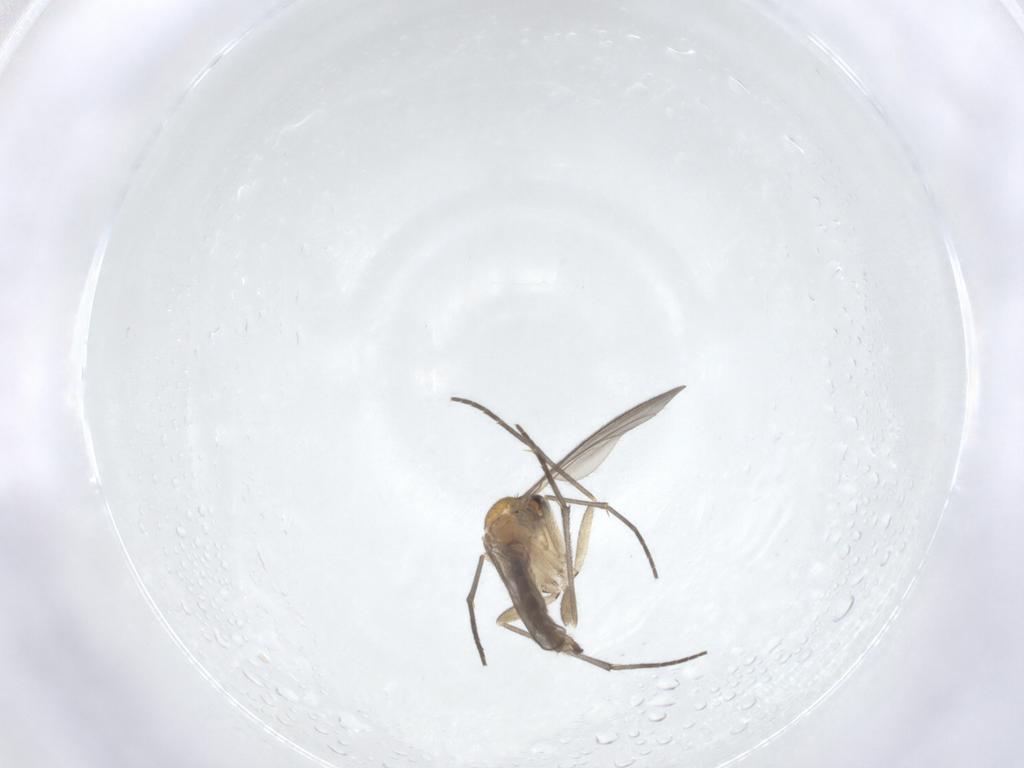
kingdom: Animalia
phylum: Arthropoda
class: Insecta
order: Diptera
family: Sciaridae
